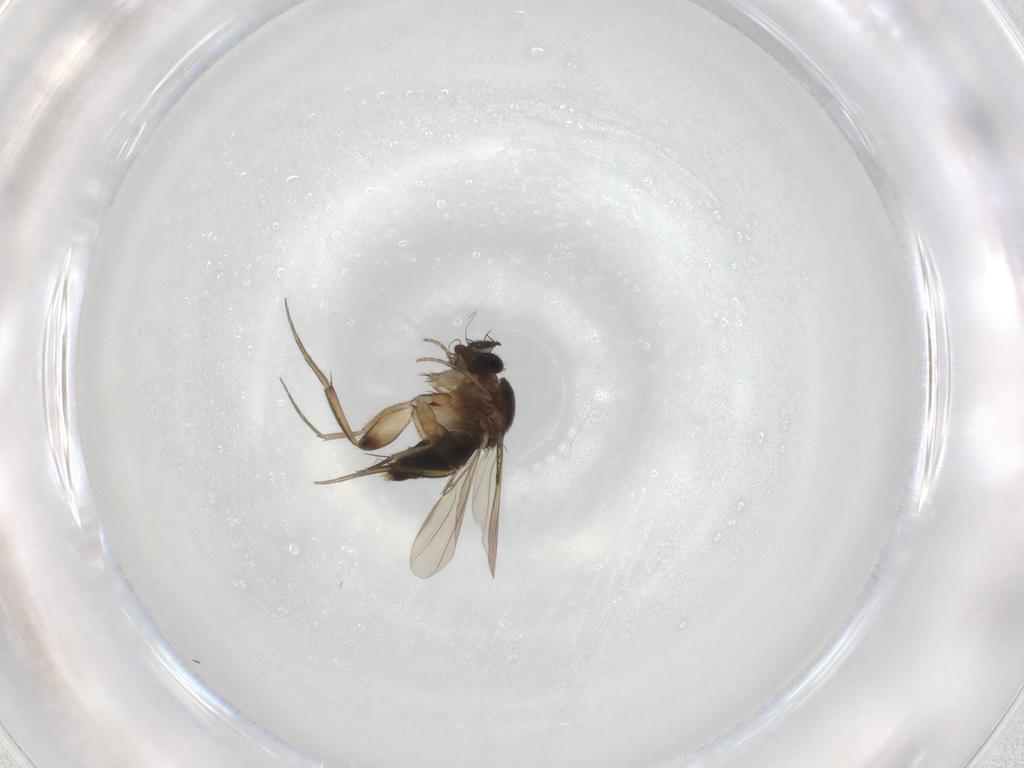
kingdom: Animalia
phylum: Arthropoda
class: Insecta
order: Diptera
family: Phoridae
